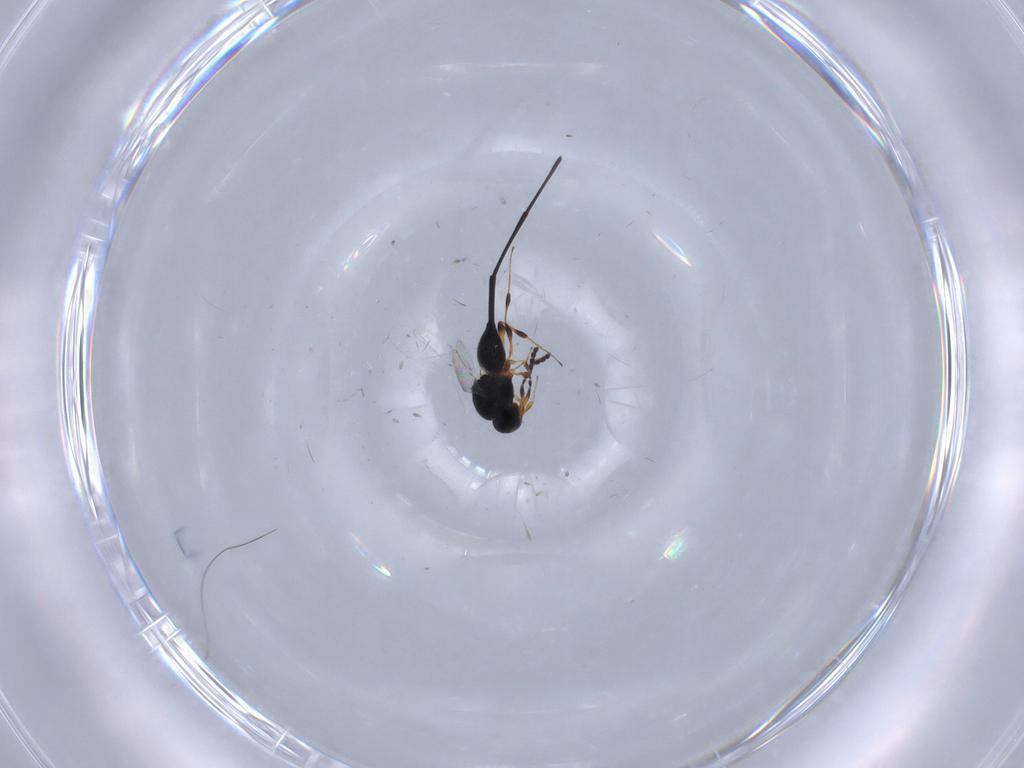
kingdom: Animalia
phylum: Arthropoda
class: Insecta
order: Hymenoptera
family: Platygastridae
